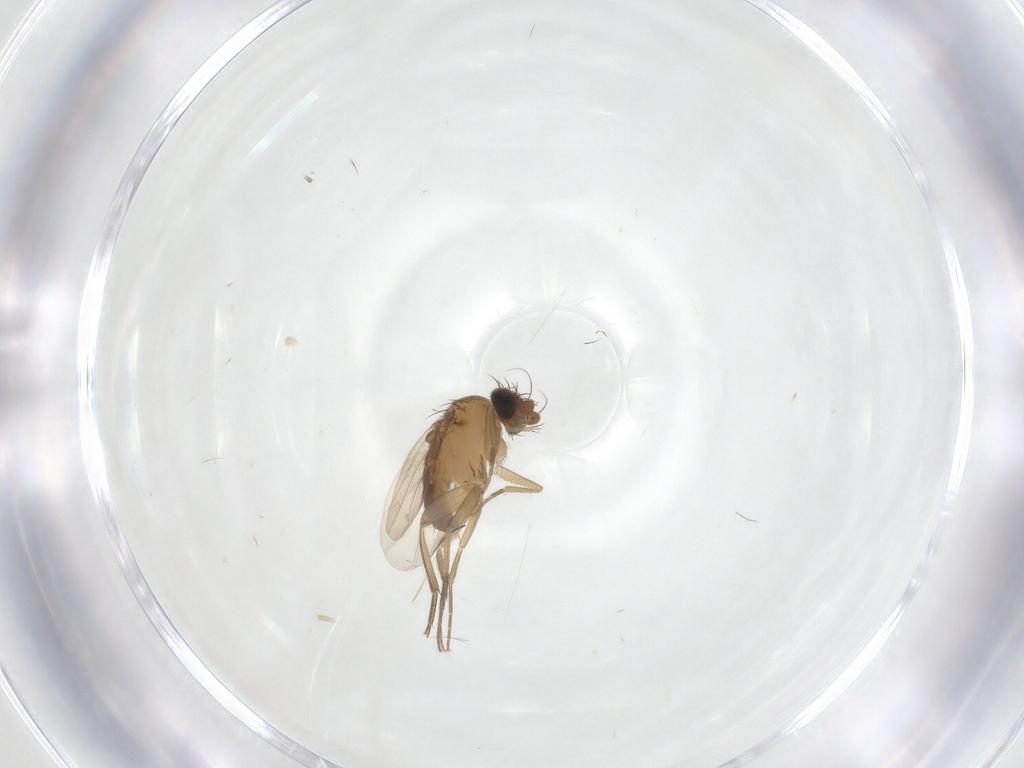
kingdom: Animalia
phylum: Arthropoda
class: Insecta
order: Diptera
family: Phoridae
